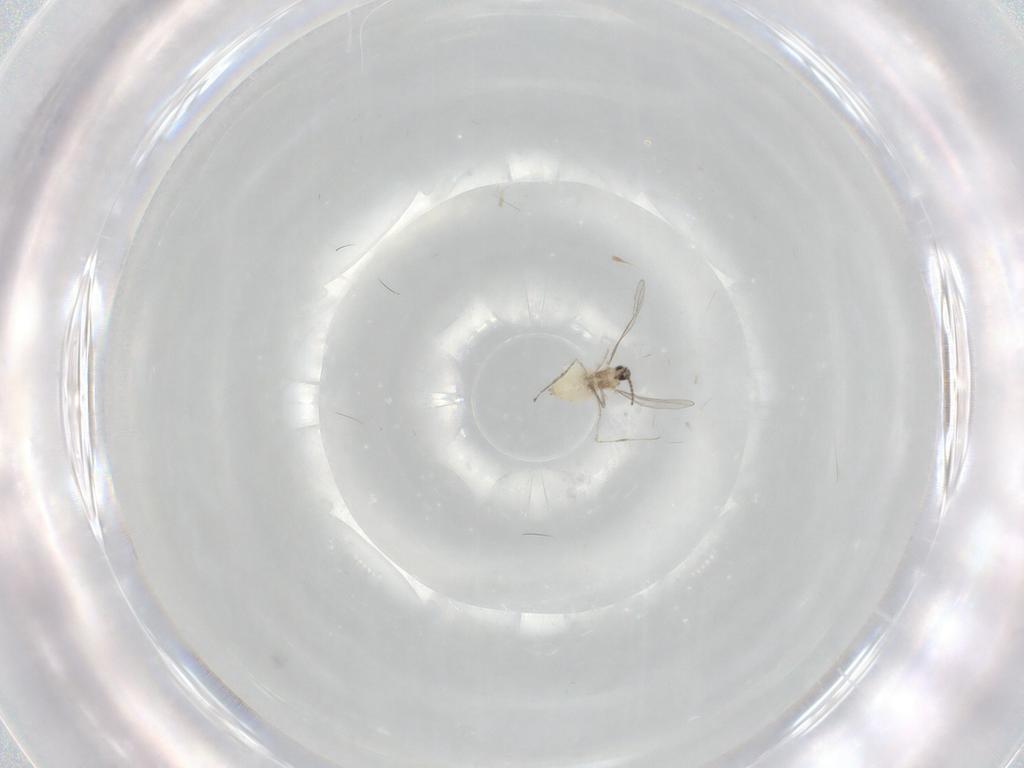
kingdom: Animalia
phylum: Arthropoda
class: Insecta
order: Diptera
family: Cecidomyiidae
